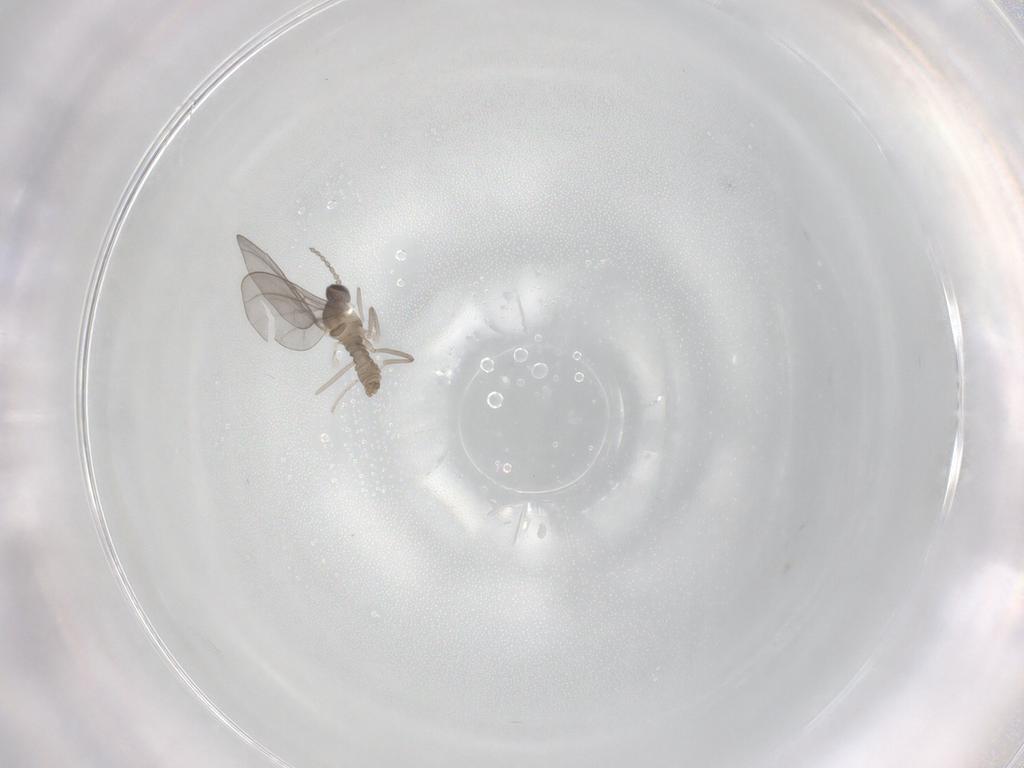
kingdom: Animalia
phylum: Arthropoda
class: Insecta
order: Diptera
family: Cecidomyiidae
